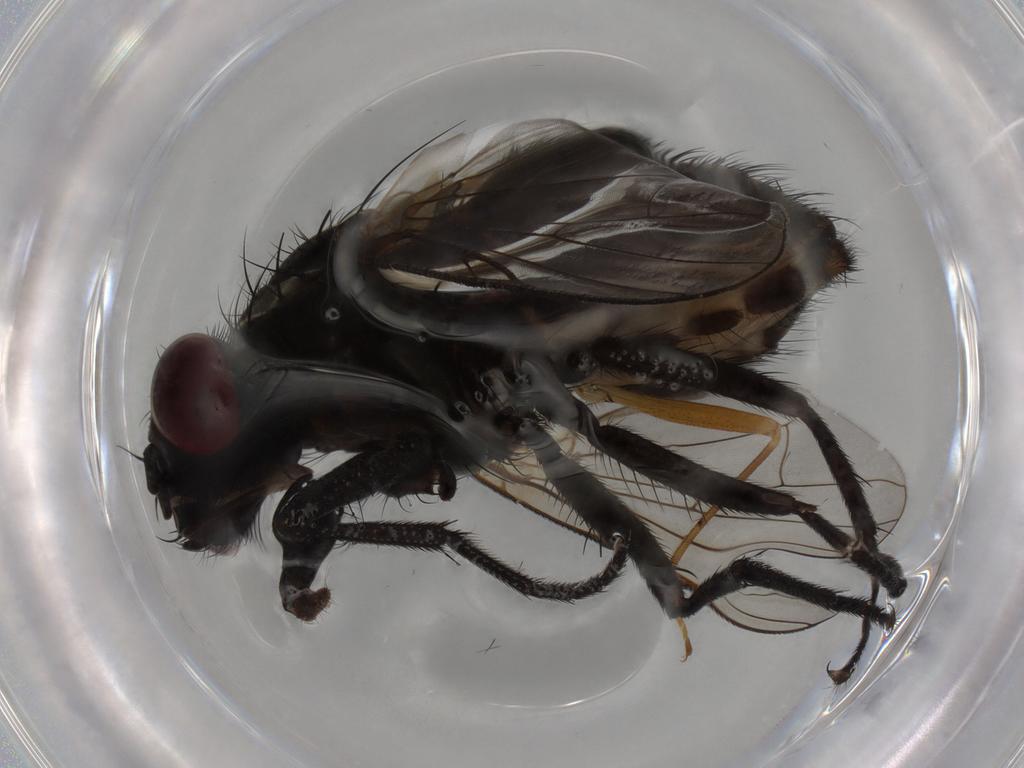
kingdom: Animalia
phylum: Arthropoda
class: Insecta
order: Diptera
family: Muscidae
